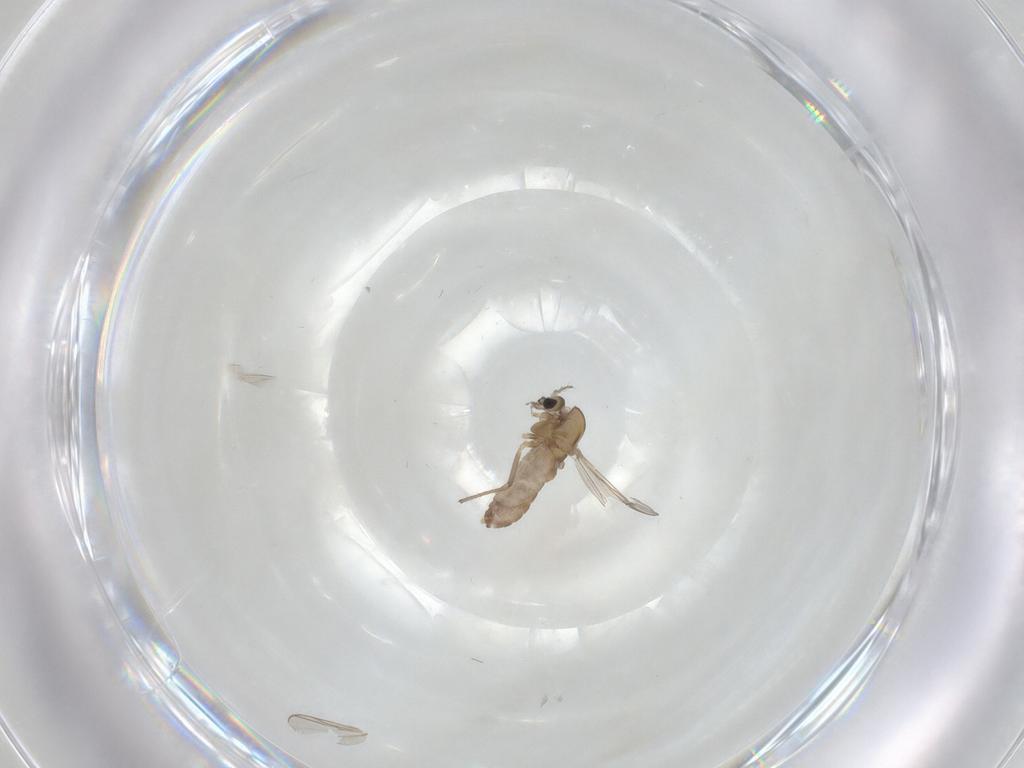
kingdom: Animalia
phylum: Arthropoda
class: Insecta
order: Diptera
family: Chironomidae
